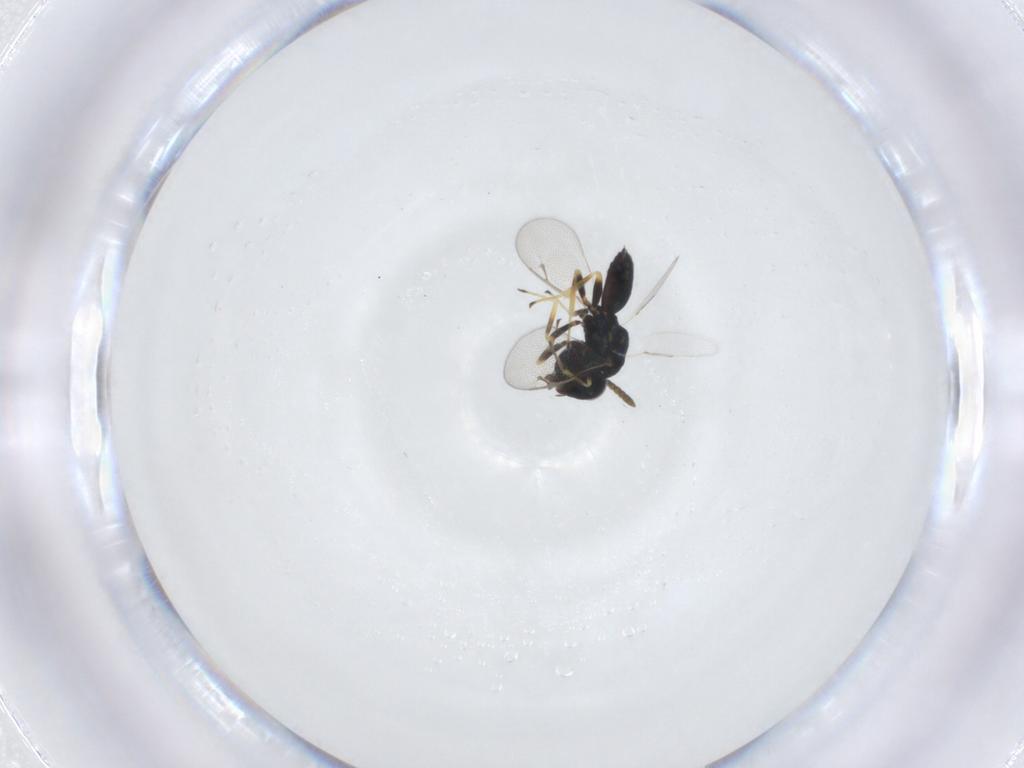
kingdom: Animalia
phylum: Arthropoda
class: Insecta
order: Hymenoptera
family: Pteromalidae
